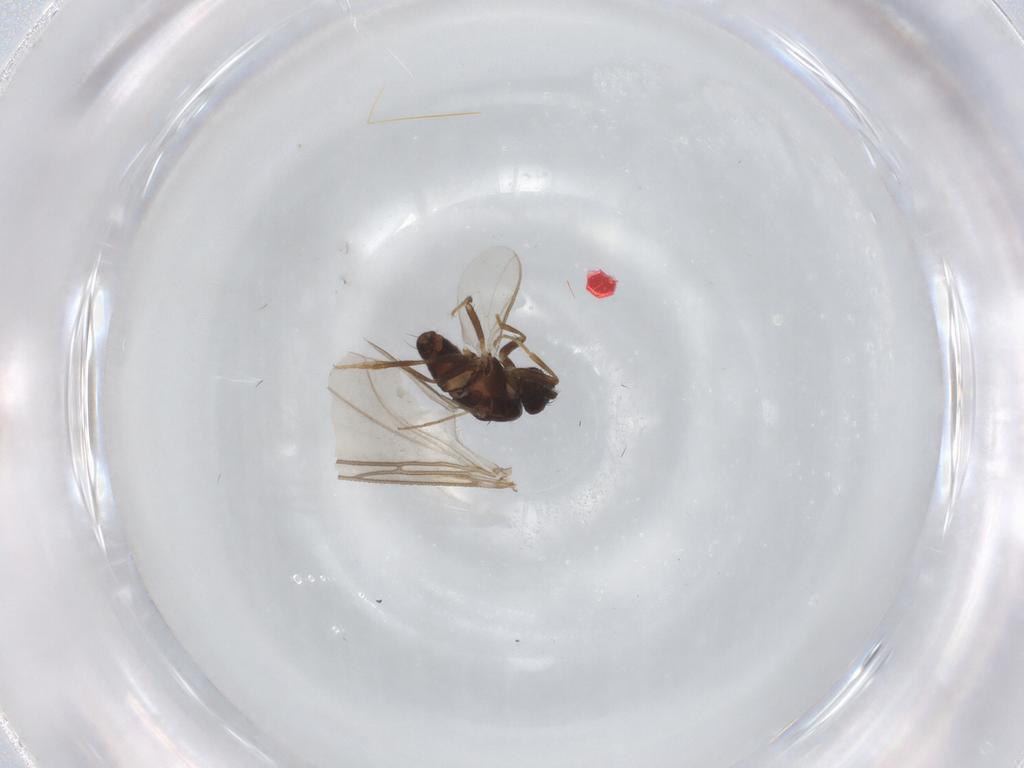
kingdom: Animalia
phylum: Arthropoda
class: Insecta
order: Diptera
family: Sphaeroceridae
